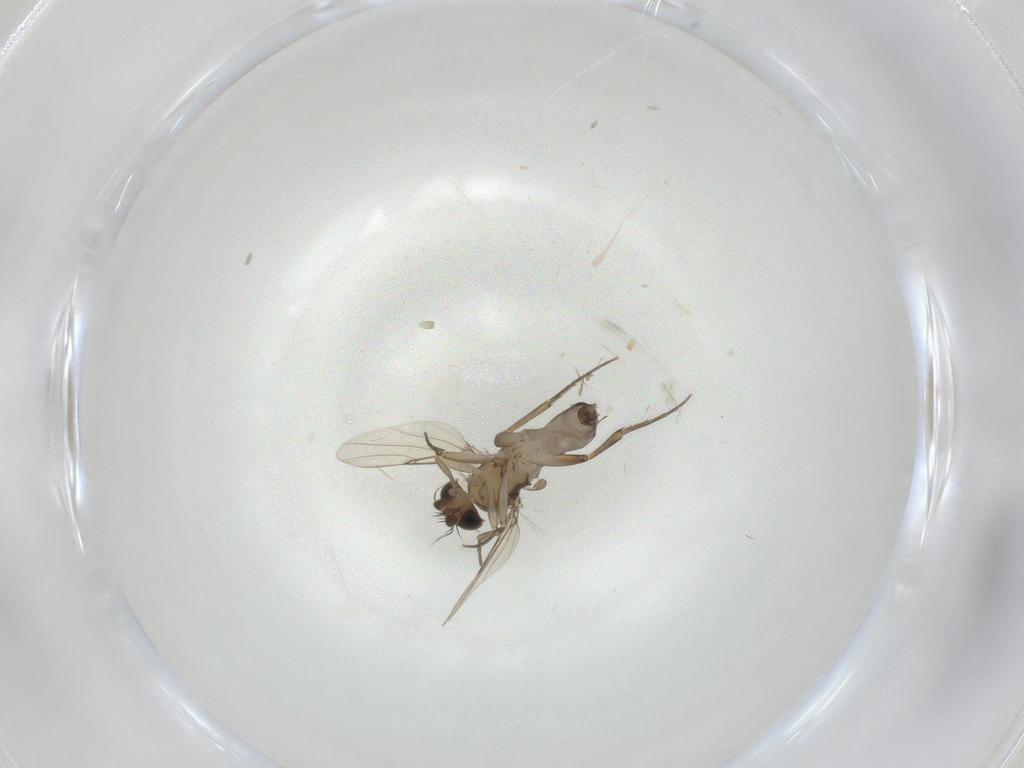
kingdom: Animalia
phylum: Arthropoda
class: Insecta
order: Diptera
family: Phoridae
